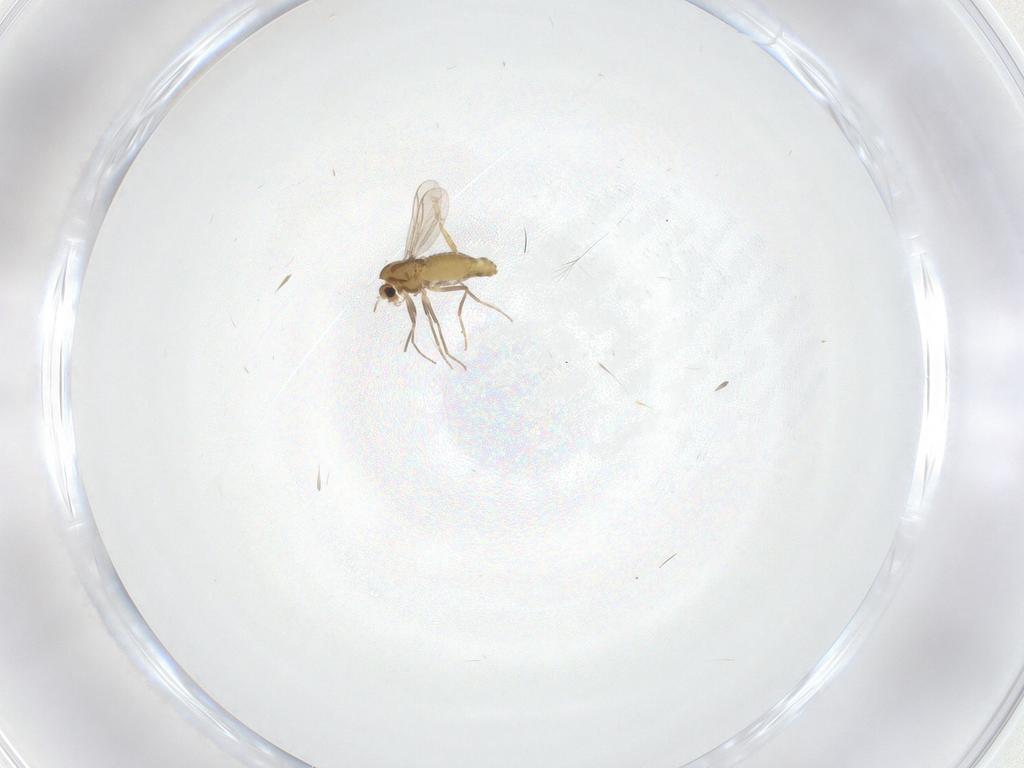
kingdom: Animalia
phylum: Arthropoda
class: Insecta
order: Diptera
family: Chironomidae
